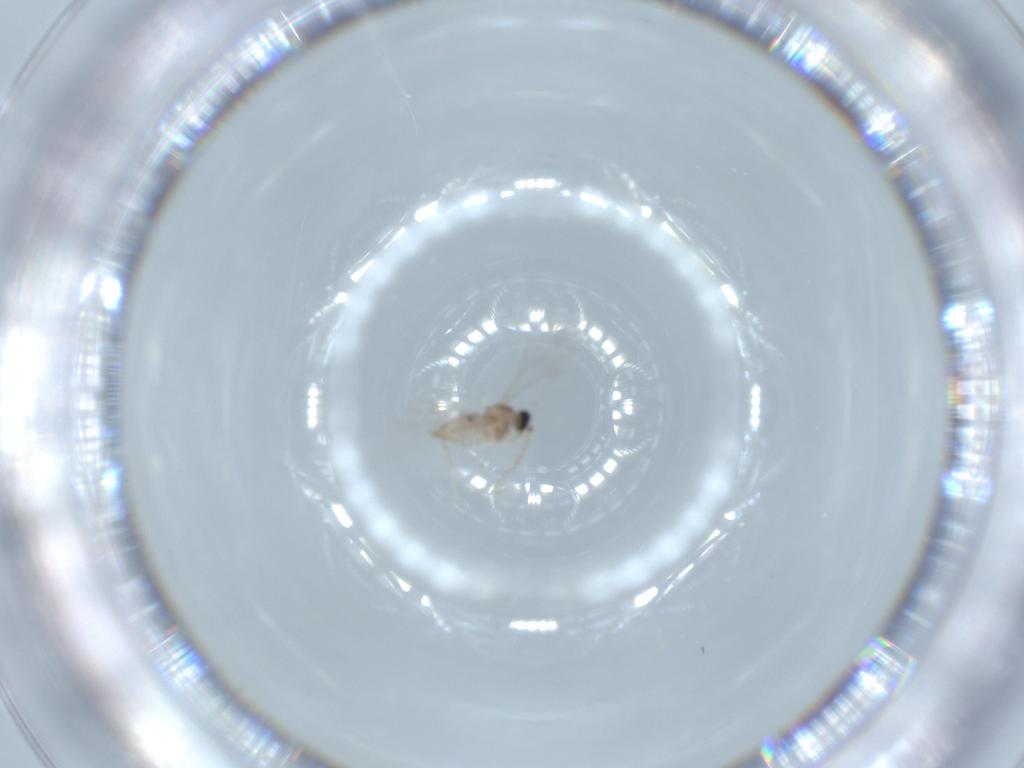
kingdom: Animalia
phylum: Arthropoda
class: Insecta
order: Diptera
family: Cecidomyiidae
